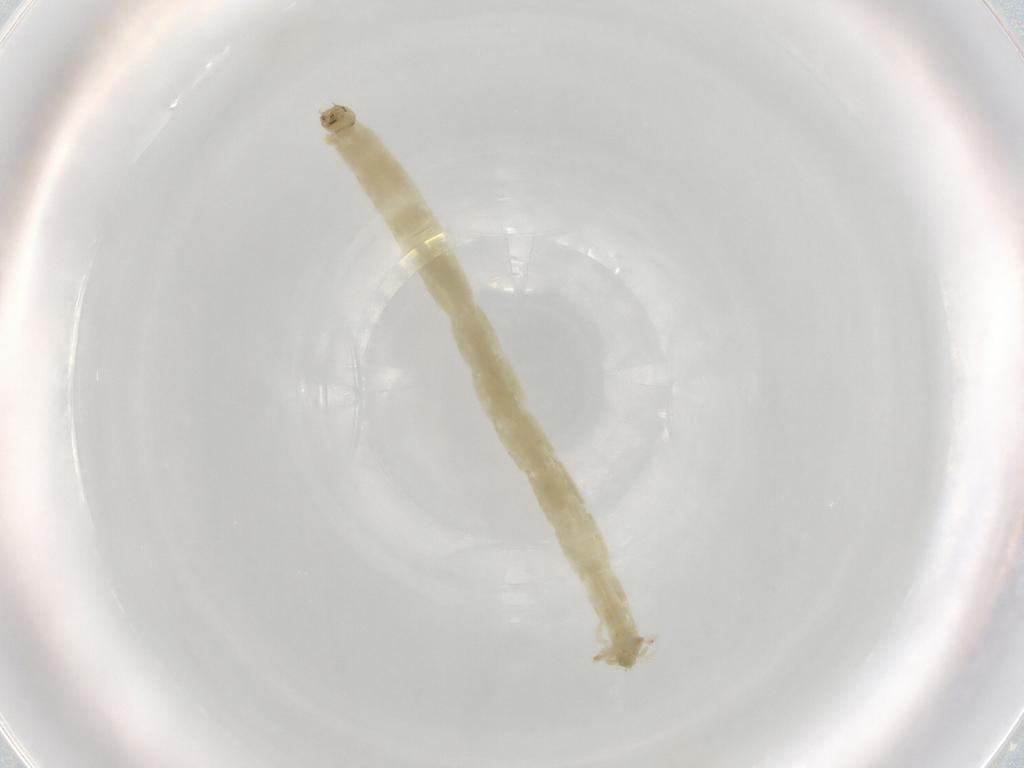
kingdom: Animalia
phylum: Arthropoda
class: Insecta
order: Diptera
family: Chironomidae
